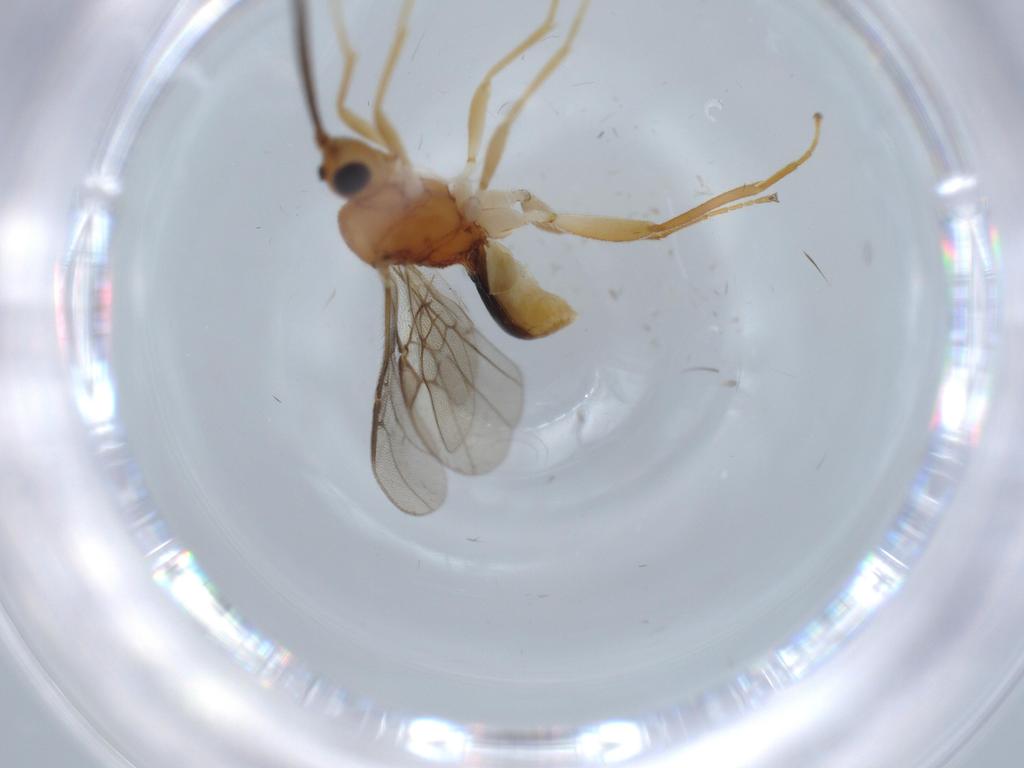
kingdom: Animalia
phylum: Arthropoda
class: Insecta
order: Hymenoptera
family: Braconidae
